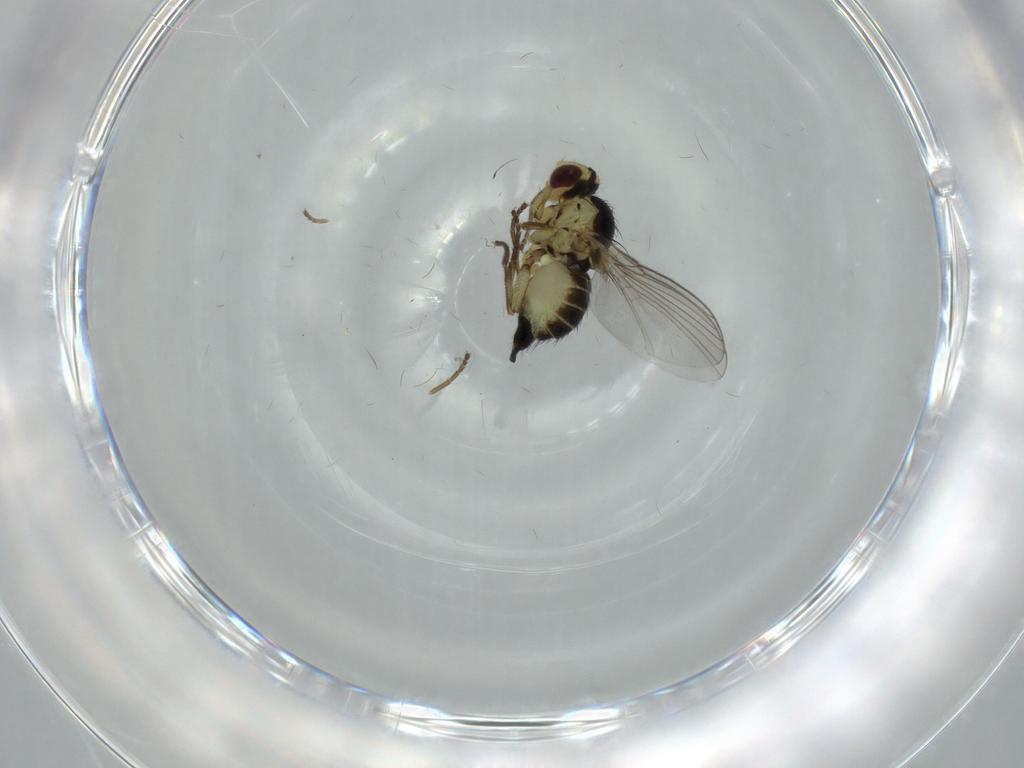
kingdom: Animalia
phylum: Arthropoda
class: Insecta
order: Diptera
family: Agromyzidae
